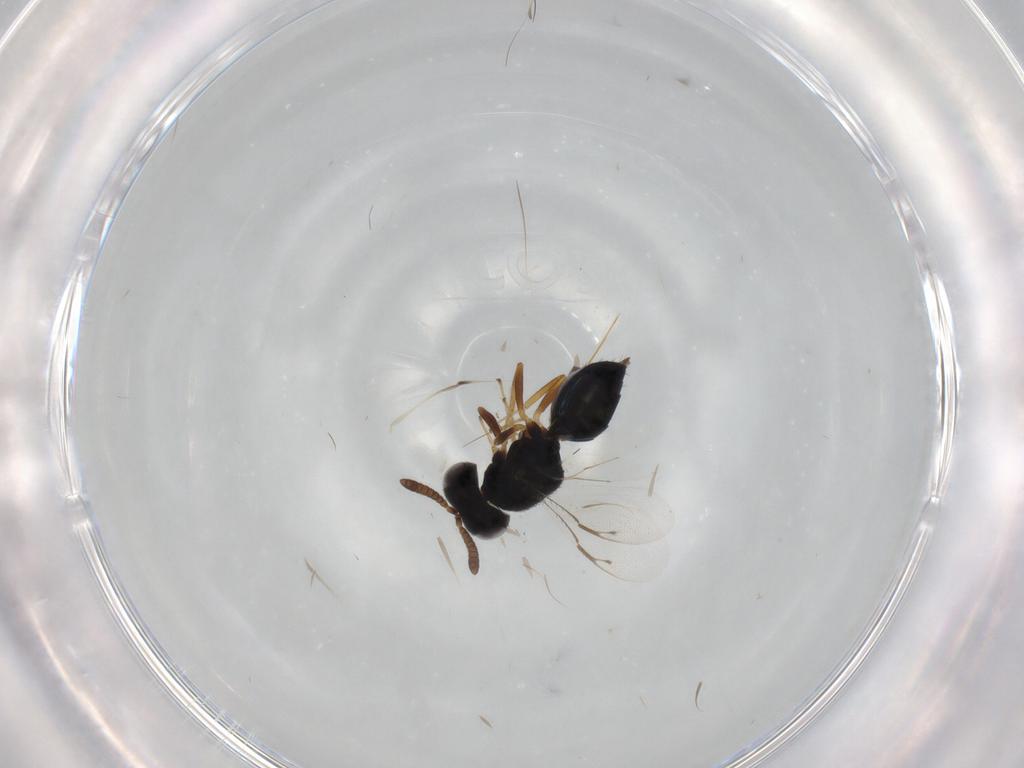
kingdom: Animalia
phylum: Arthropoda
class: Insecta
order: Hymenoptera
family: Pteromalidae
